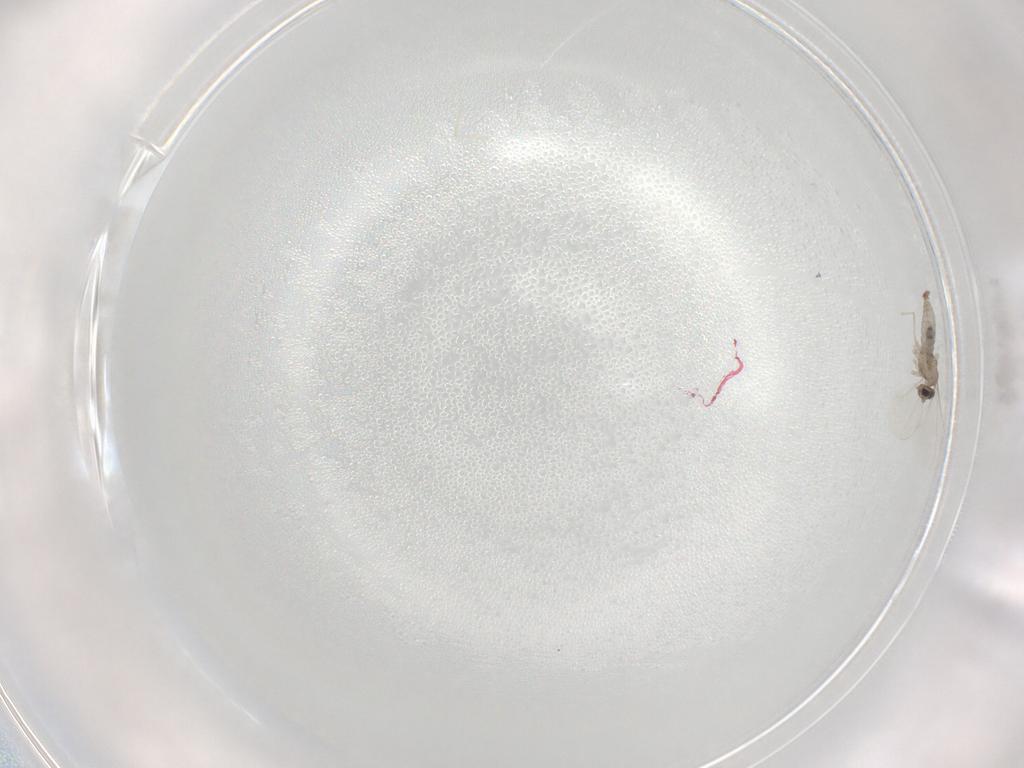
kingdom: Animalia
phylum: Arthropoda
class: Insecta
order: Diptera
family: Cecidomyiidae
